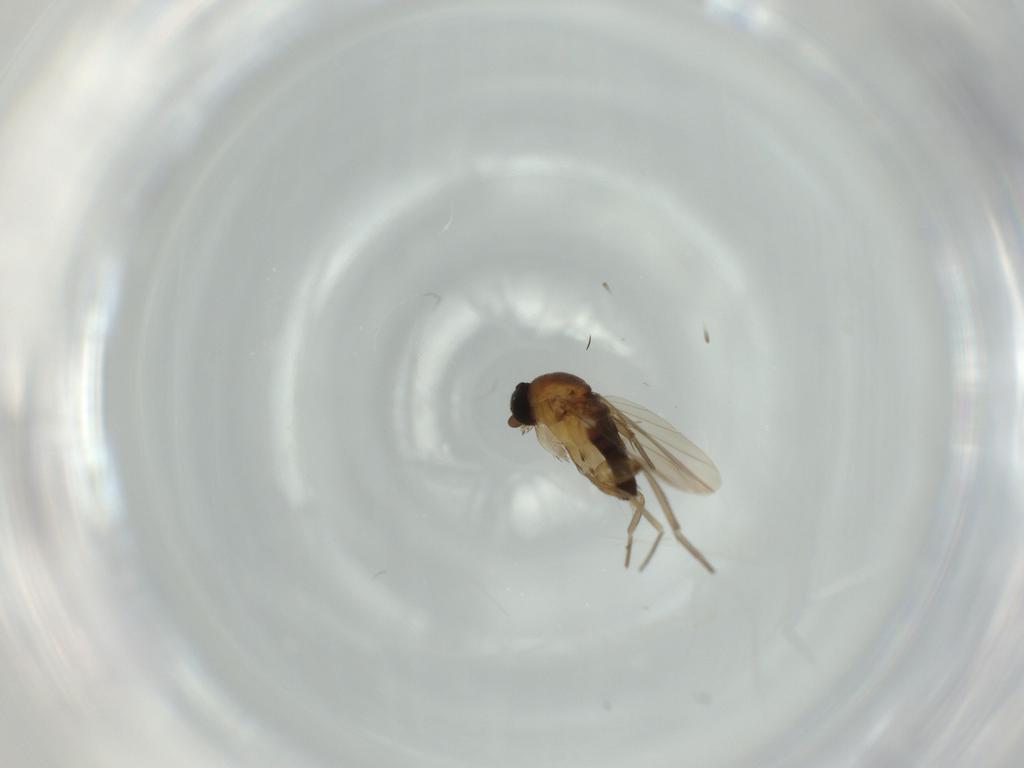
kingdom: Animalia
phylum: Arthropoda
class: Insecta
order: Diptera
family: Phoridae
